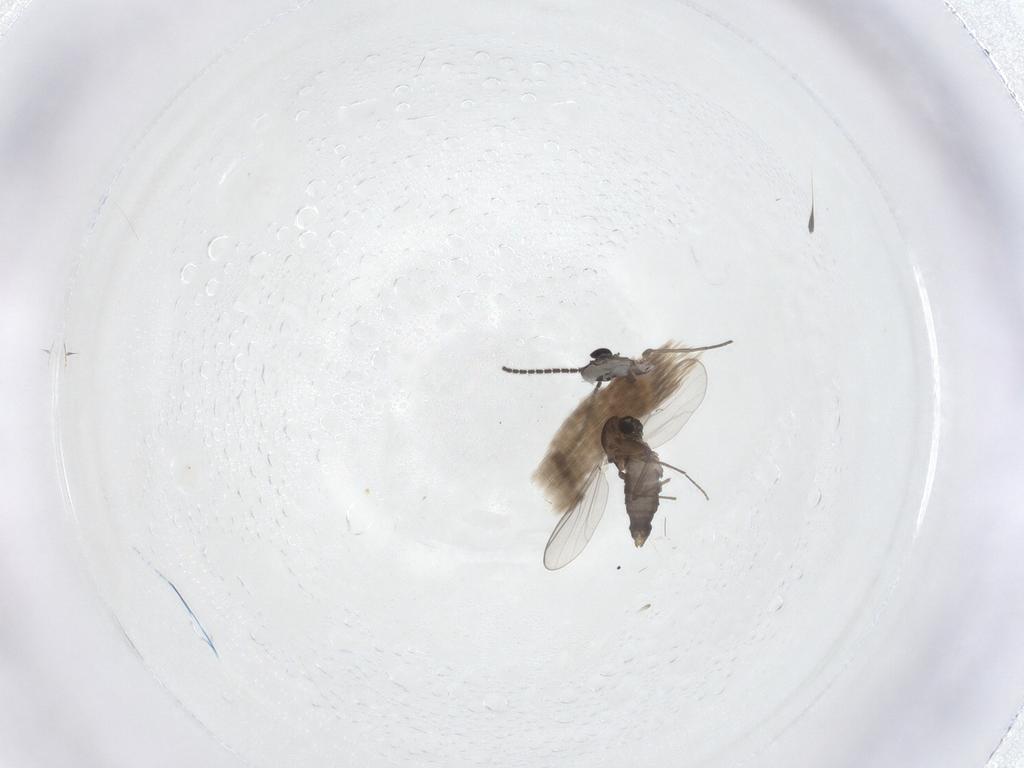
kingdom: Animalia
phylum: Arthropoda
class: Insecta
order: Diptera
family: Chironomidae
